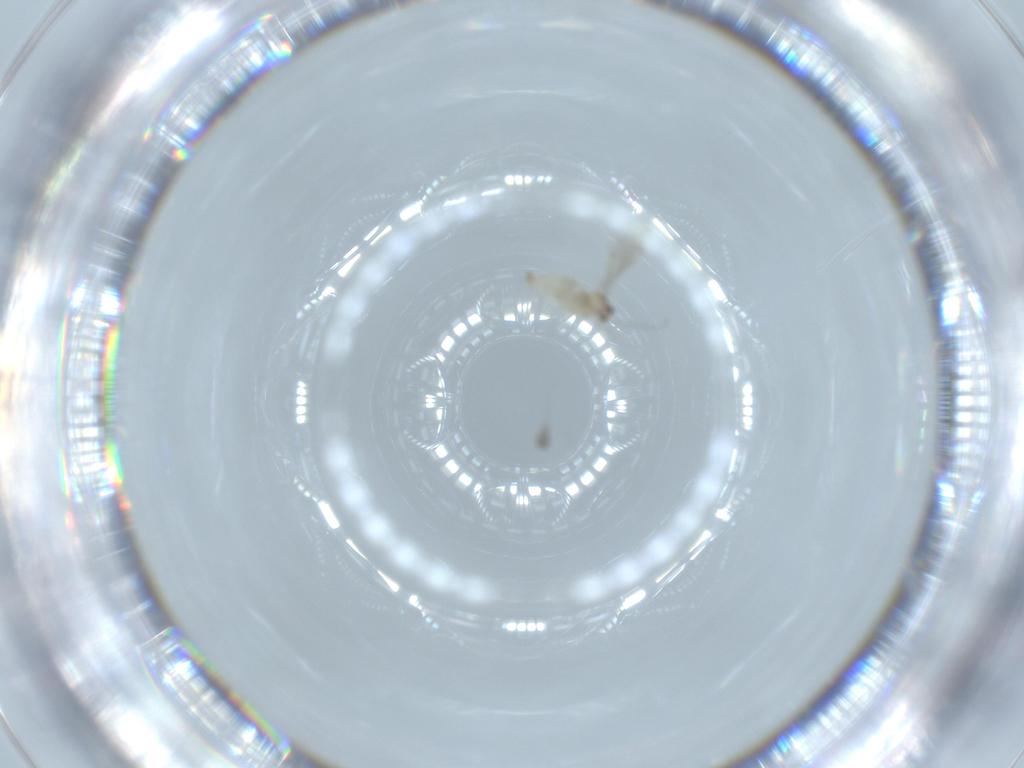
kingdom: Animalia
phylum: Arthropoda
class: Insecta
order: Diptera
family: Cecidomyiidae
